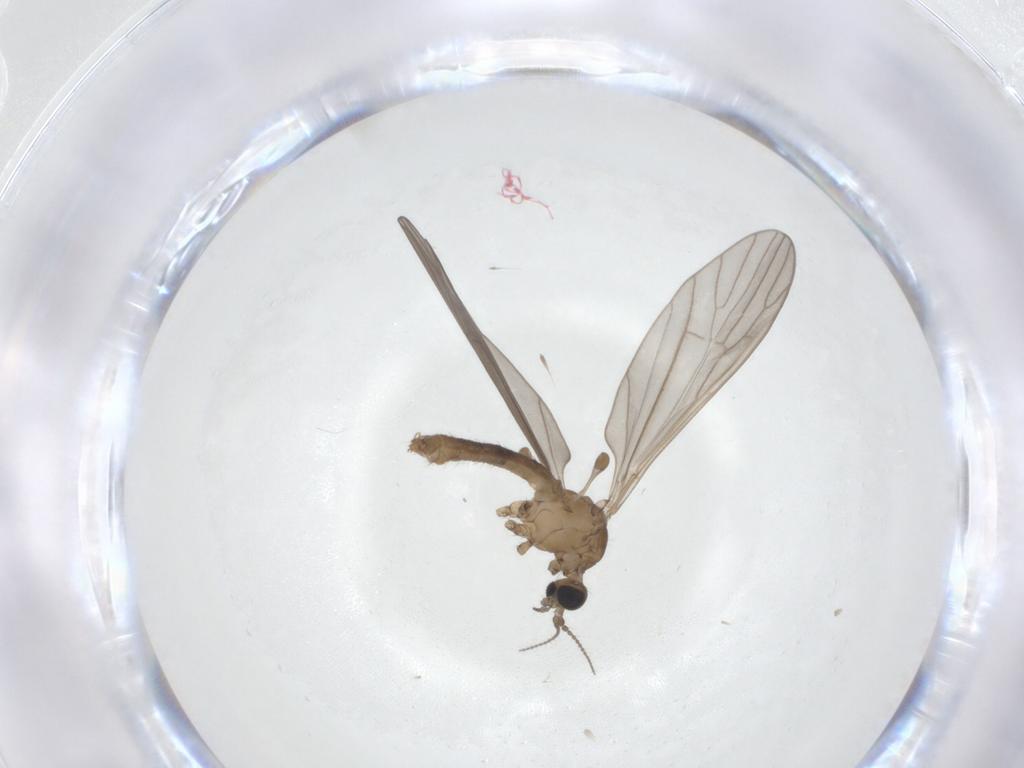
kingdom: Animalia
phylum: Arthropoda
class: Insecta
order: Diptera
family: Limoniidae
